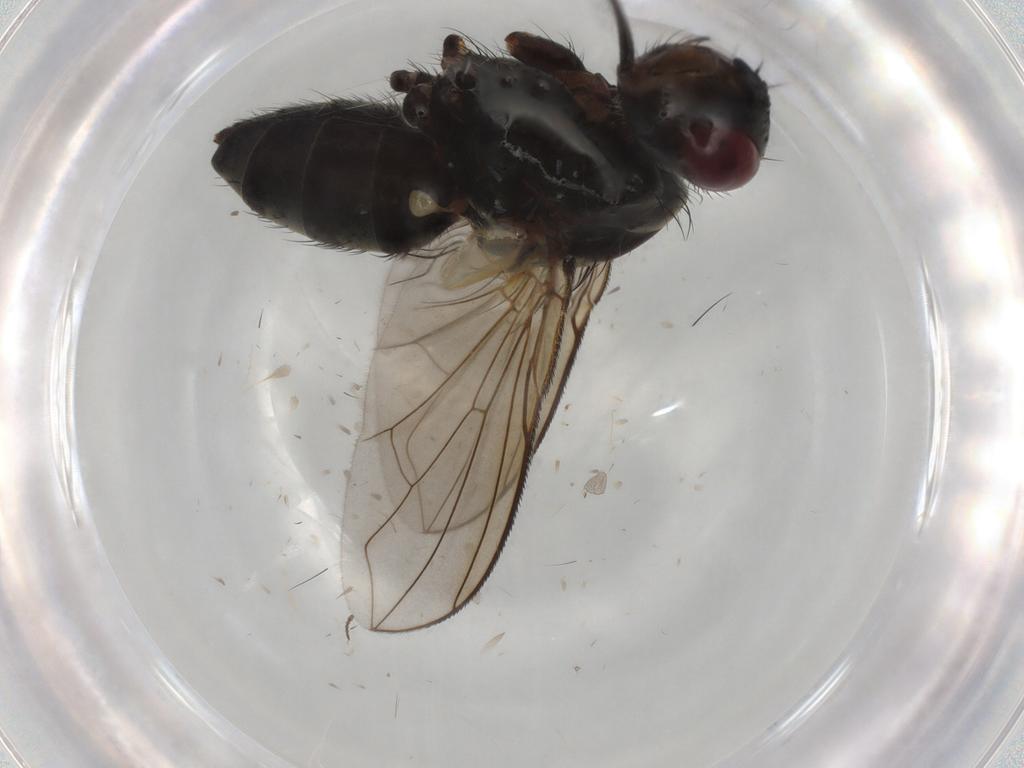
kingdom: Animalia
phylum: Arthropoda
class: Insecta
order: Diptera
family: Tachinidae
